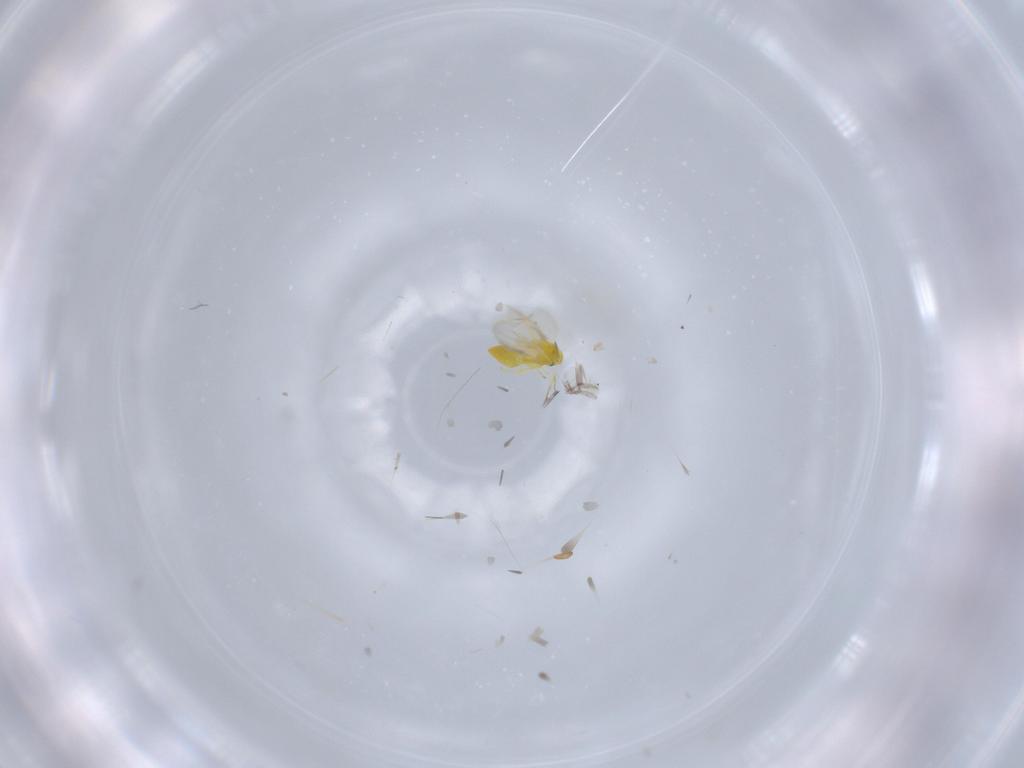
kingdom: Animalia
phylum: Arthropoda
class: Insecta
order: Hemiptera
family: Aleyrodidae
